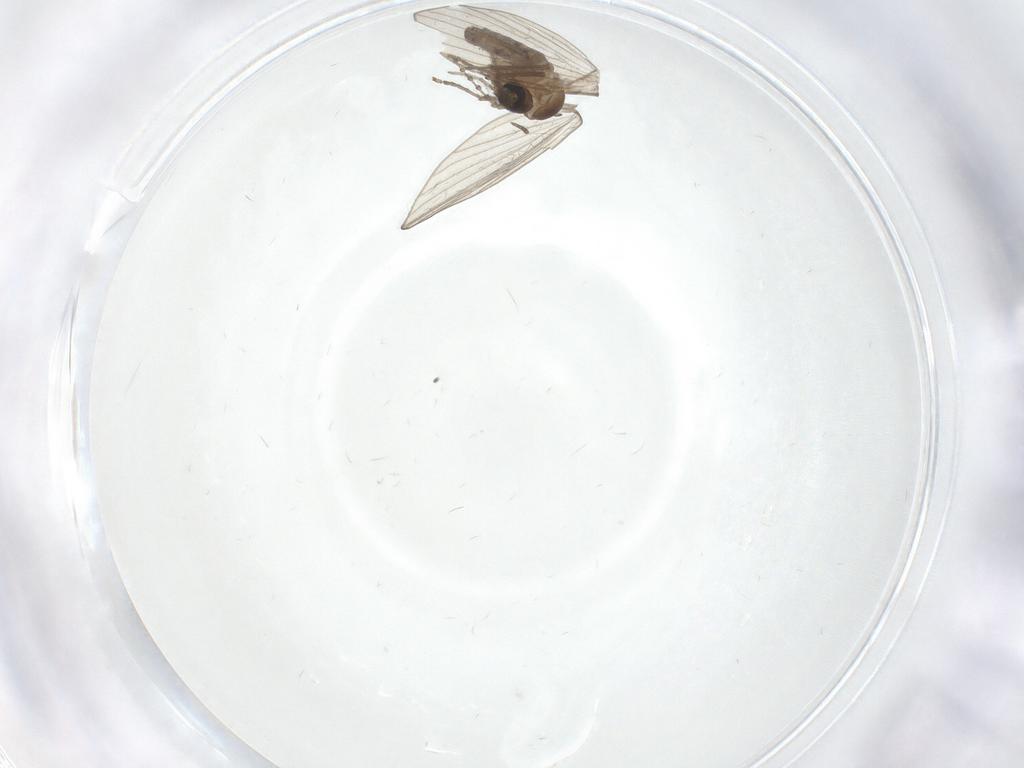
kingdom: Animalia
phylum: Arthropoda
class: Insecta
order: Diptera
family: Psychodidae
